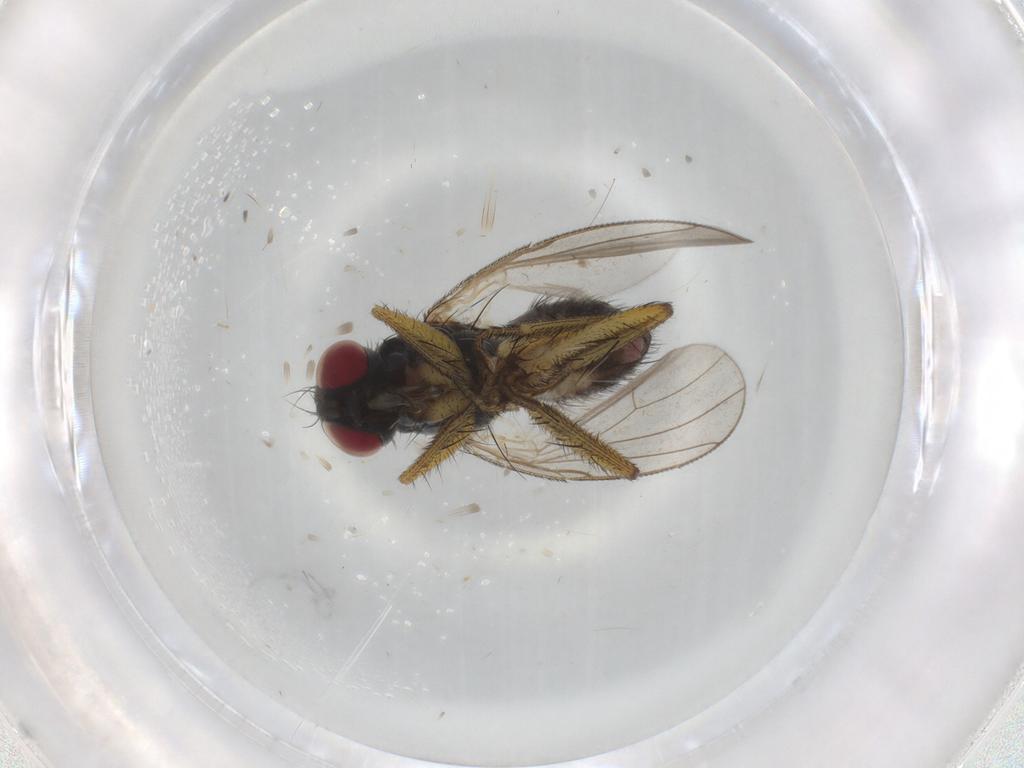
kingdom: Animalia
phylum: Arthropoda
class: Insecta
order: Diptera
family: Muscidae
